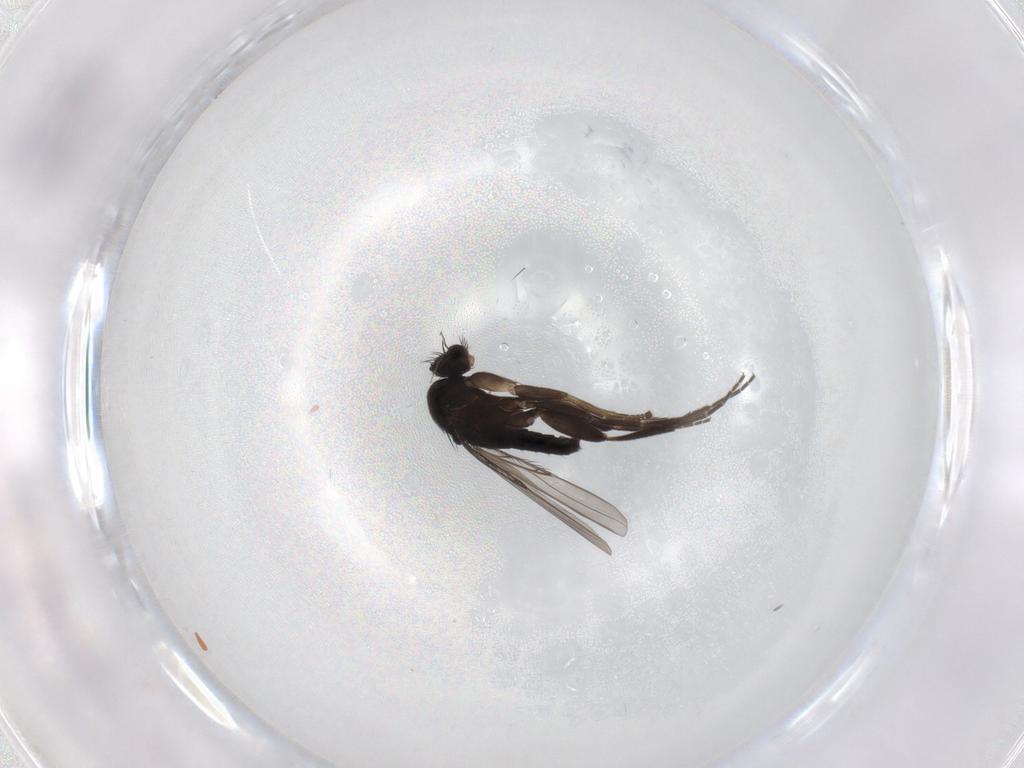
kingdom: Animalia
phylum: Arthropoda
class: Insecta
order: Diptera
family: Phoridae
